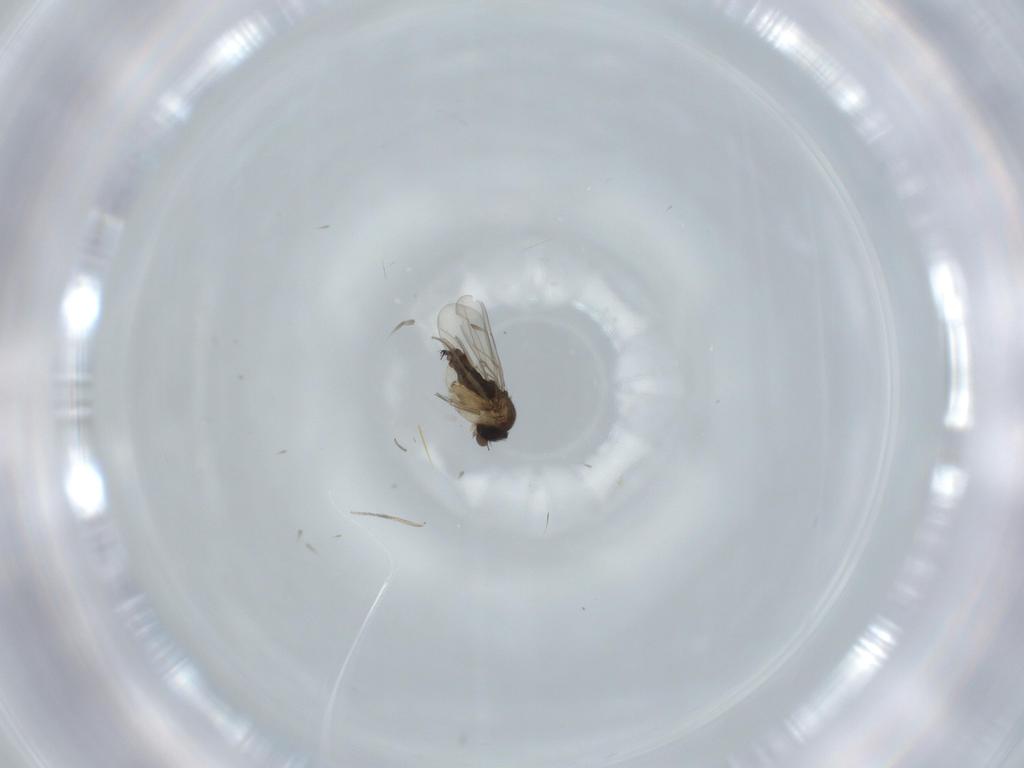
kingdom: Animalia
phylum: Arthropoda
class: Insecta
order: Diptera
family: Phoridae
